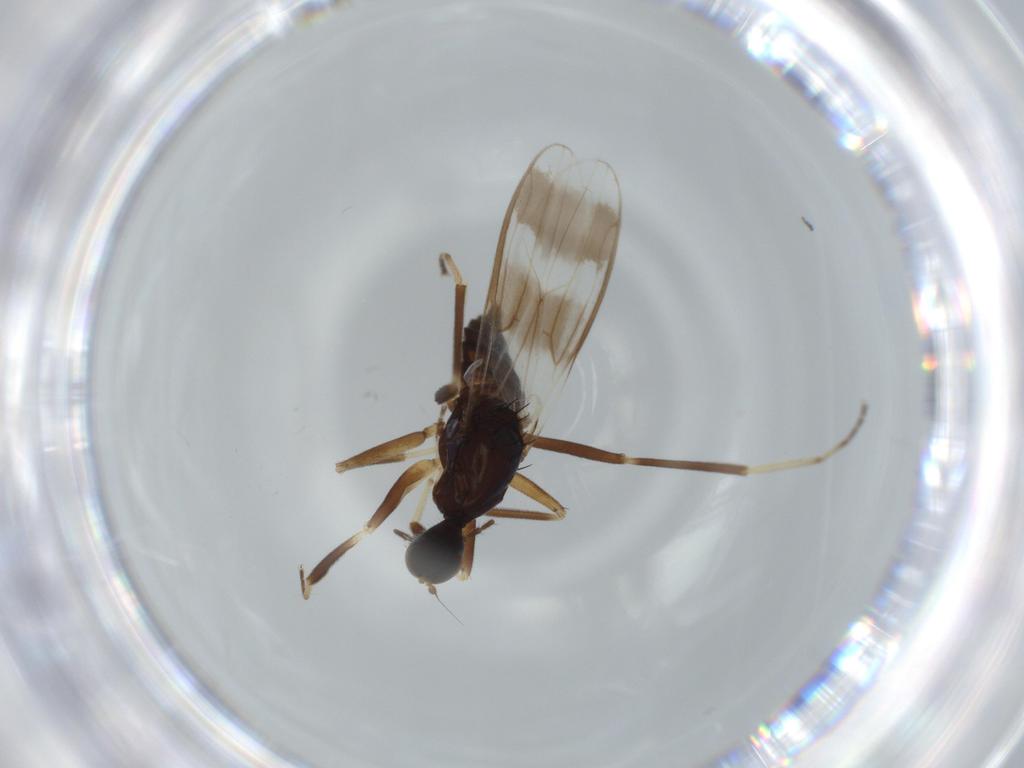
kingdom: Animalia
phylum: Arthropoda
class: Insecta
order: Diptera
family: Hybotidae
